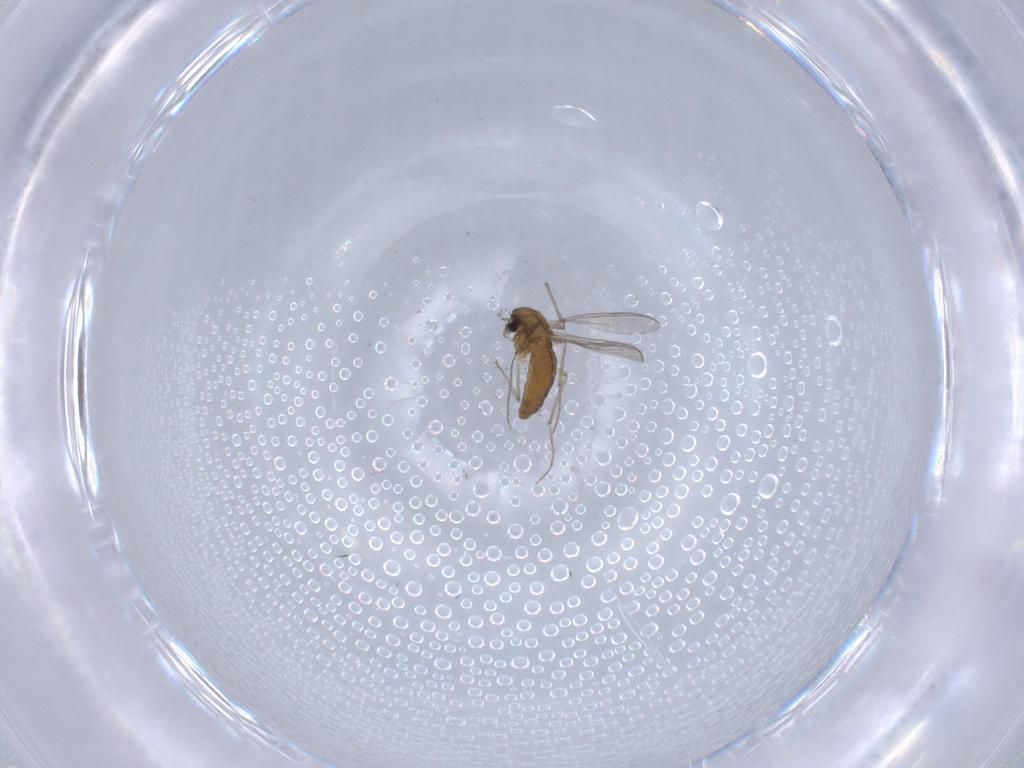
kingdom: Animalia
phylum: Arthropoda
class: Insecta
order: Diptera
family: Chironomidae
